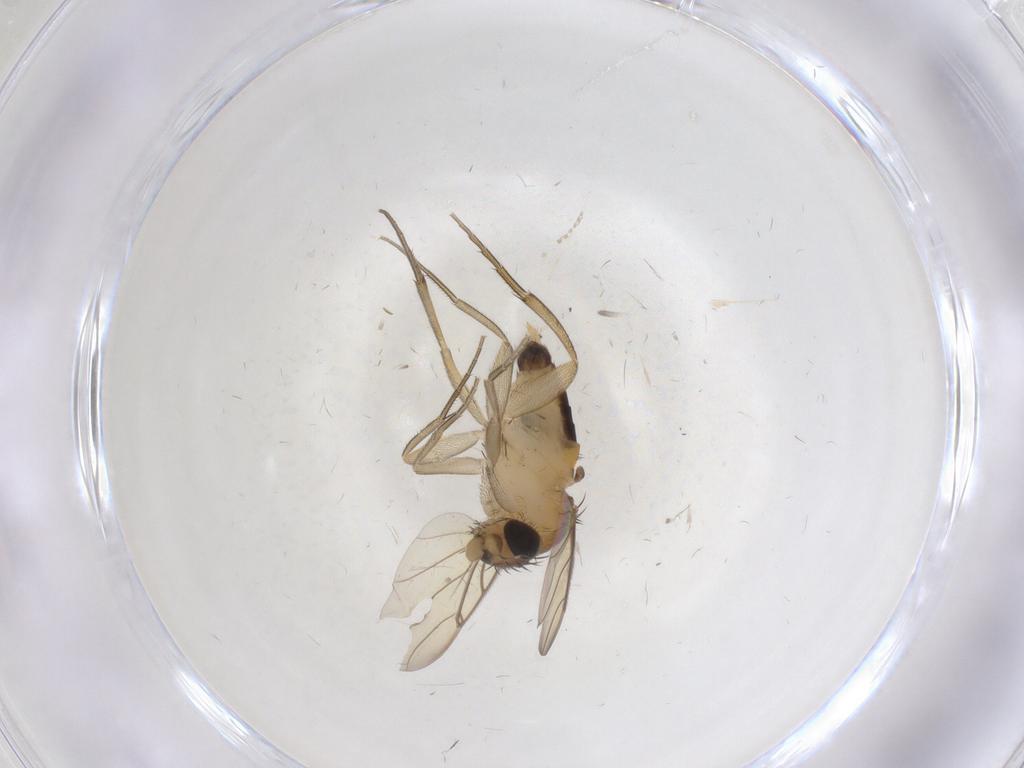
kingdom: Animalia
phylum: Arthropoda
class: Insecta
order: Diptera
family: Phoridae
